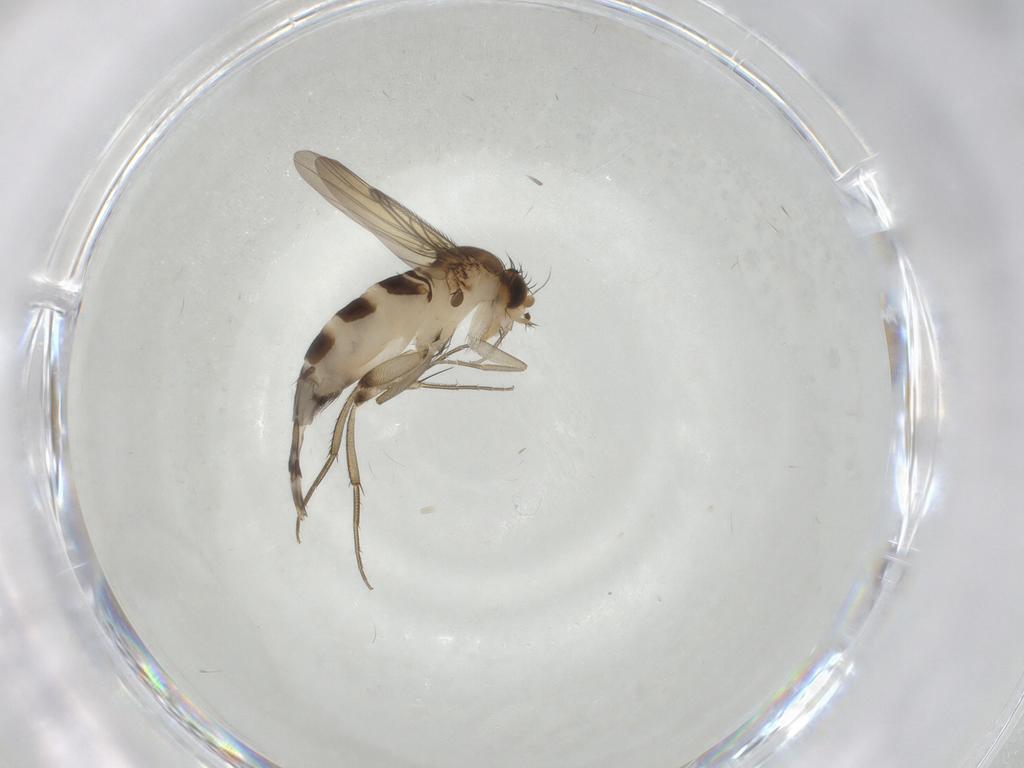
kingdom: Animalia
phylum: Arthropoda
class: Insecta
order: Diptera
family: Phoridae
